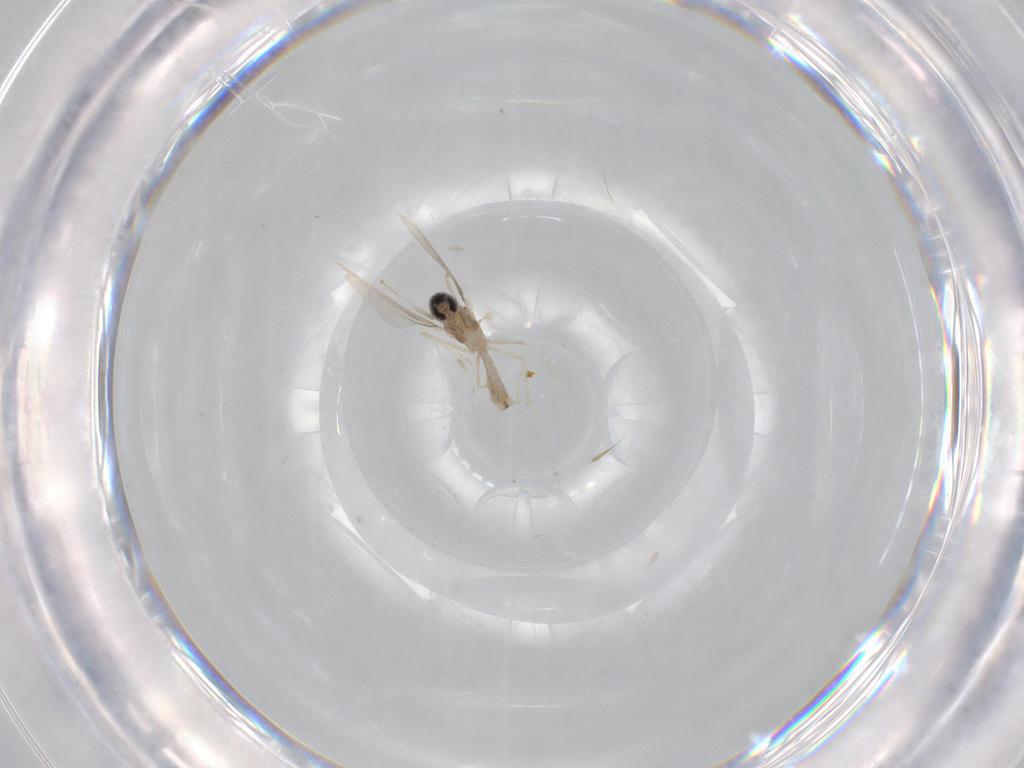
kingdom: Animalia
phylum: Arthropoda
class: Insecta
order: Diptera
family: Cecidomyiidae
